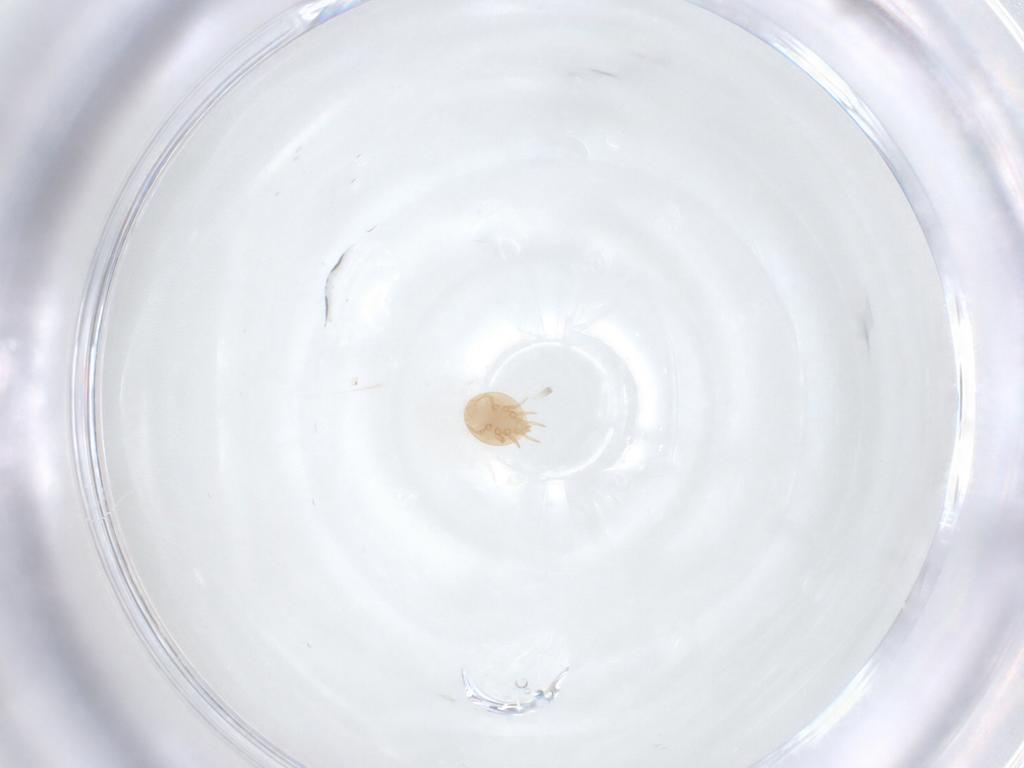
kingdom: Animalia
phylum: Arthropoda
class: Arachnida
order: Mesostigmata
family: Trematuridae
